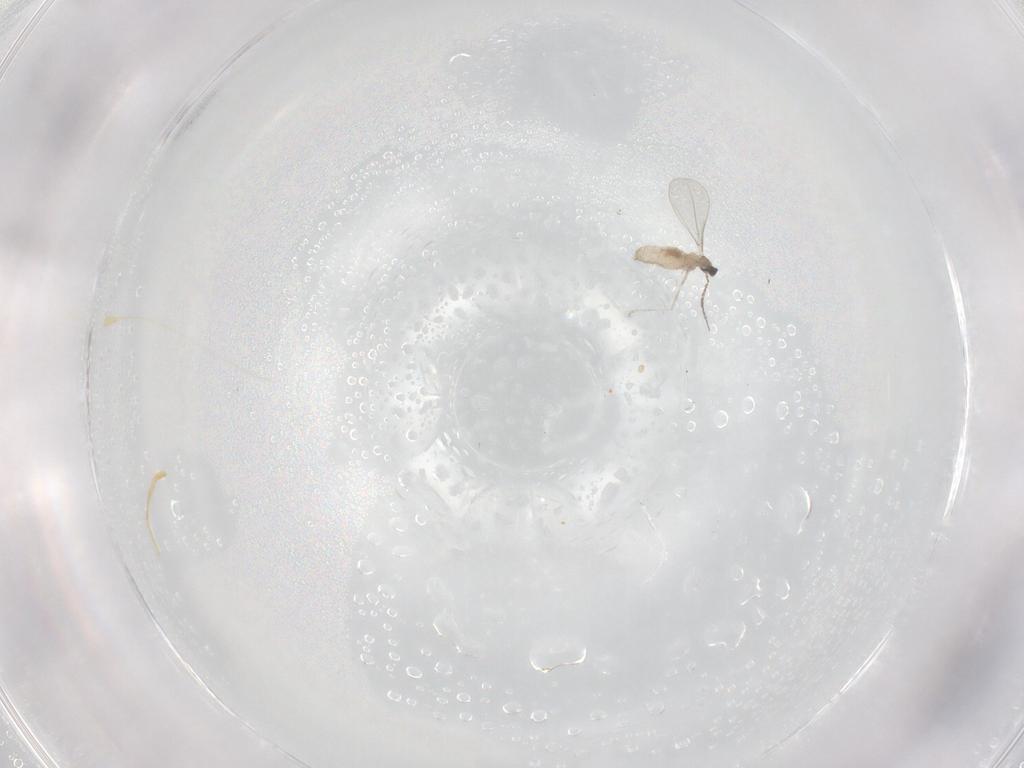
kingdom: Animalia
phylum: Arthropoda
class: Insecta
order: Diptera
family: Cecidomyiidae
